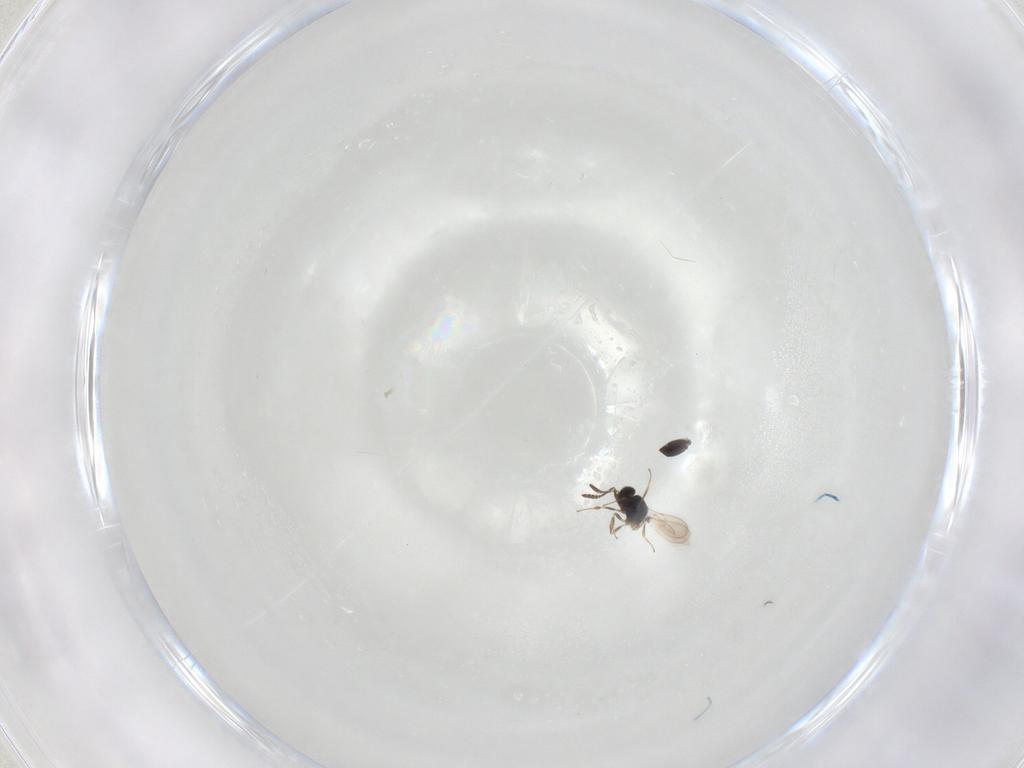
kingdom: Animalia
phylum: Arthropoda
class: Insecta
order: Hymenoptera
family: Scelionidae
